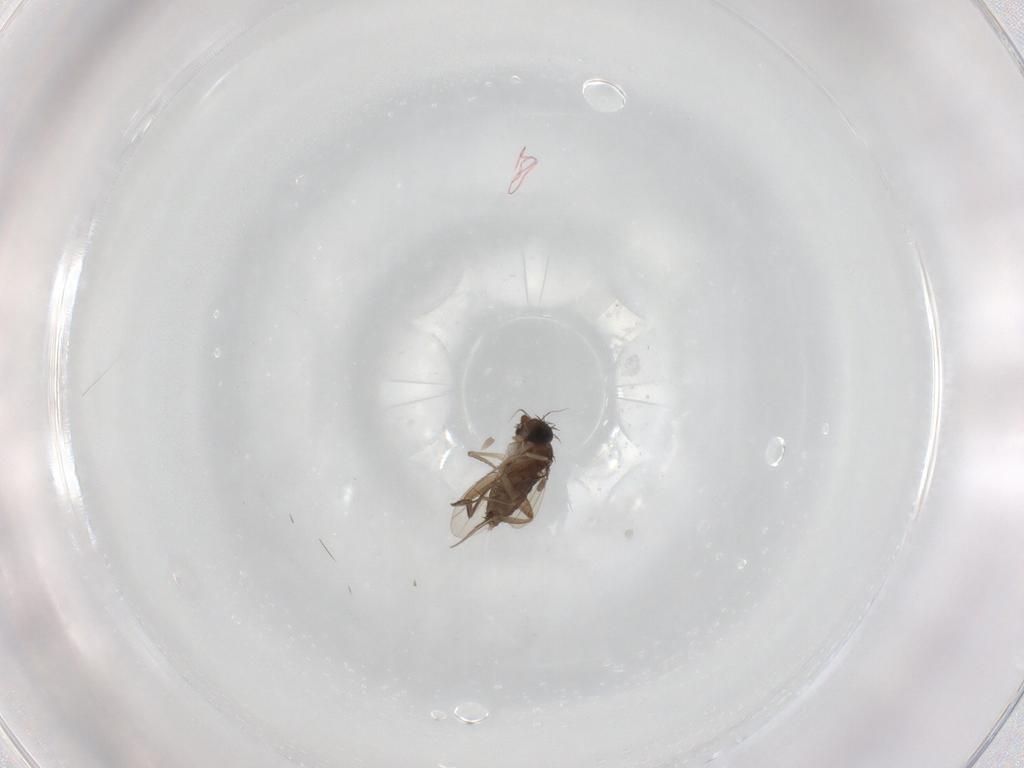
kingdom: Animalia
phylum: Arthropoda
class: Insecta
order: Diptera
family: Phoridae
